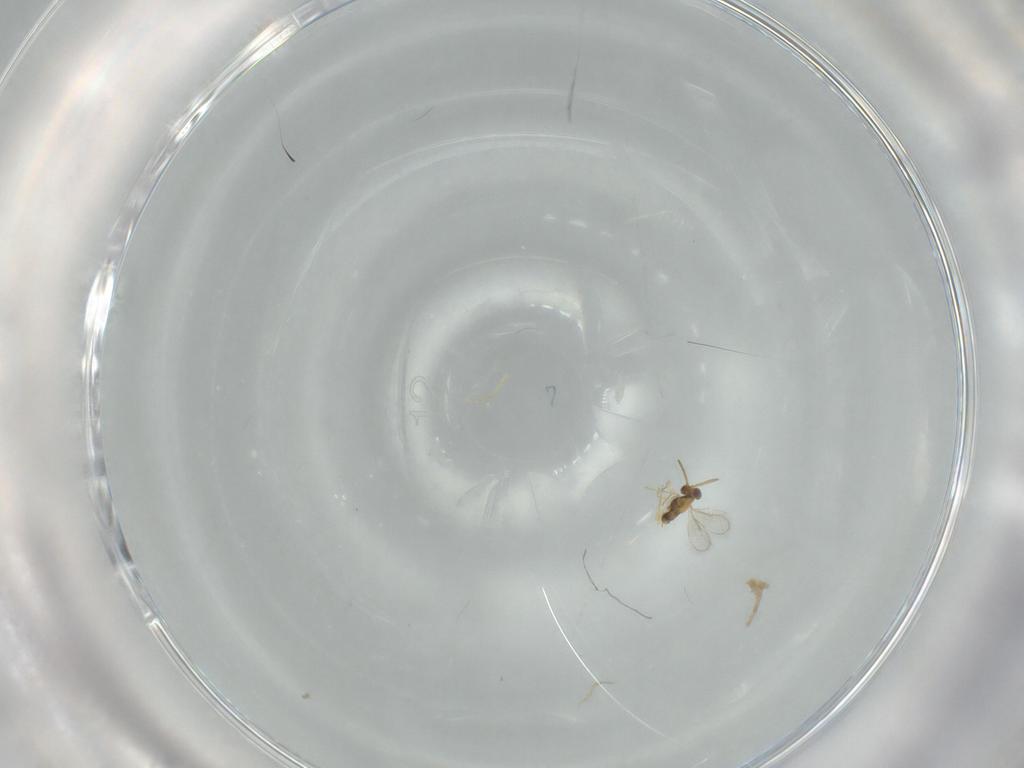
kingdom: Animalia
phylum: Arthropoda
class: Insecta
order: Hymenoptera
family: Aphelinidae
